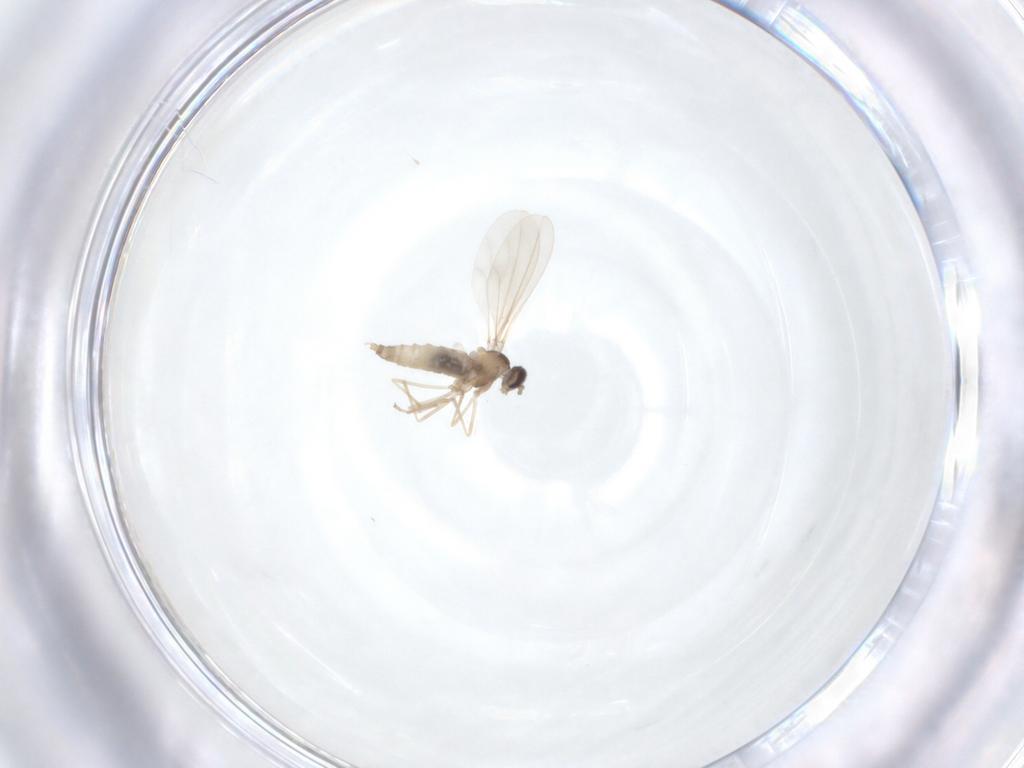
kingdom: Animalia
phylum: Arthropoda
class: Insecta
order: Diptera
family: Cecidomyiidae
